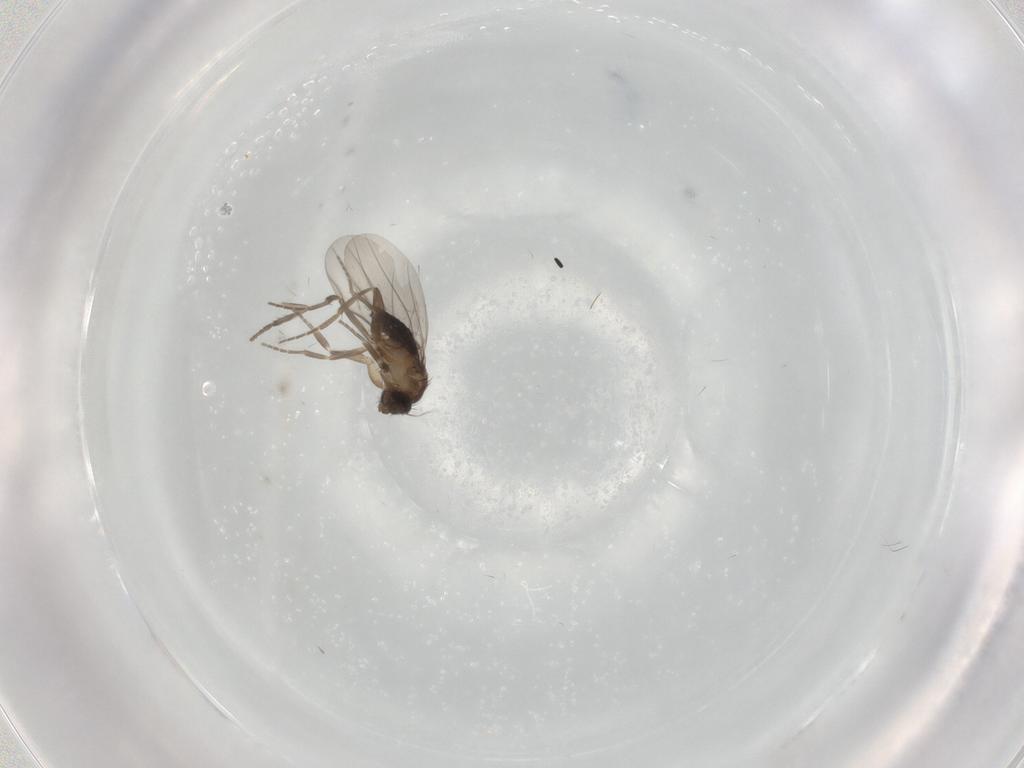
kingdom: Animalia
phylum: Arthropoda
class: Insecta
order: Diptera
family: Psychodidae
